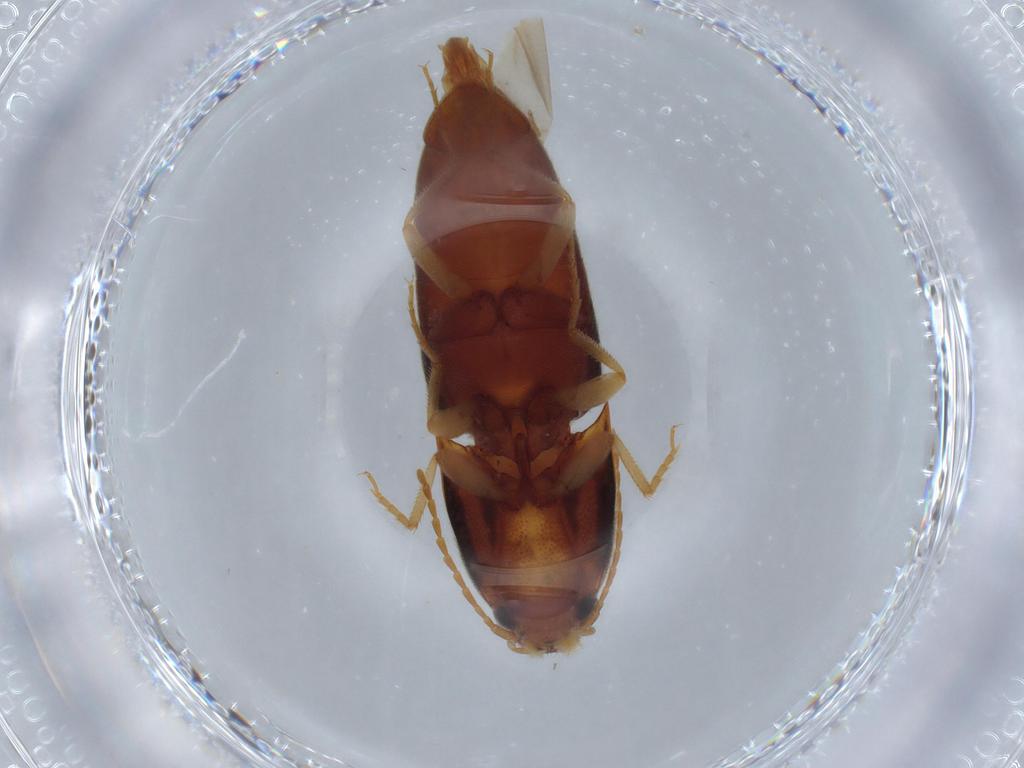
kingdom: Animalia
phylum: Arthropoda
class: Insecta
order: Coleoptera
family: Elateridae
